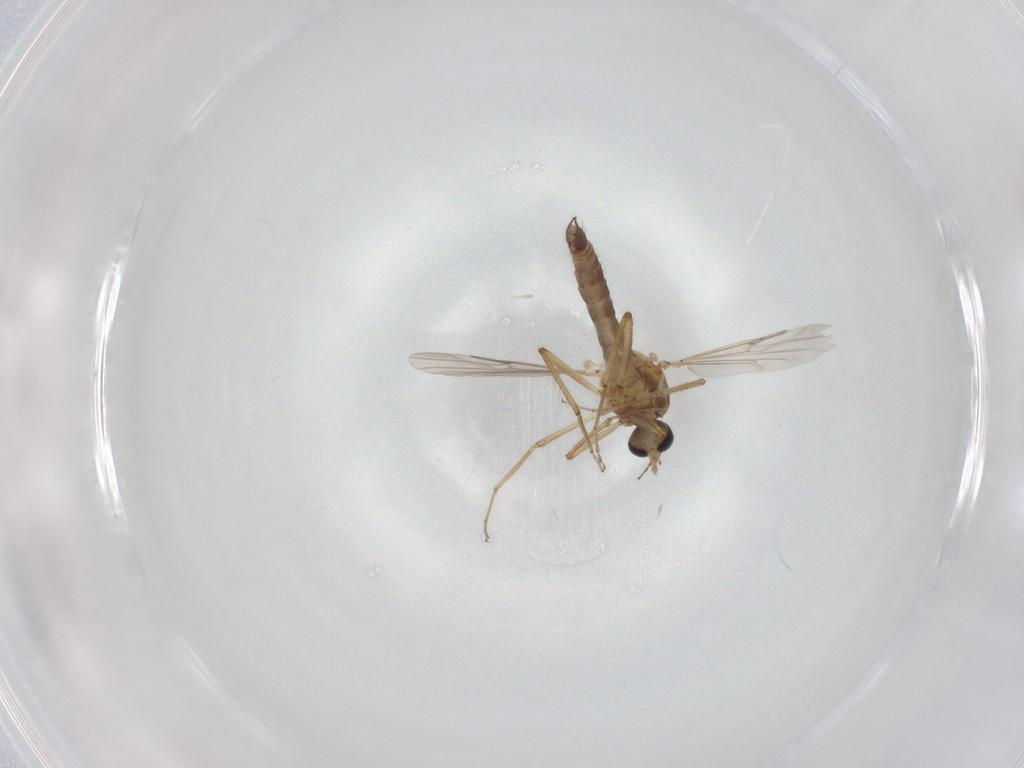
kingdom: Animalia
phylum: Arthropoda
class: Insecta
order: Diptera
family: Ceratopogonidae
